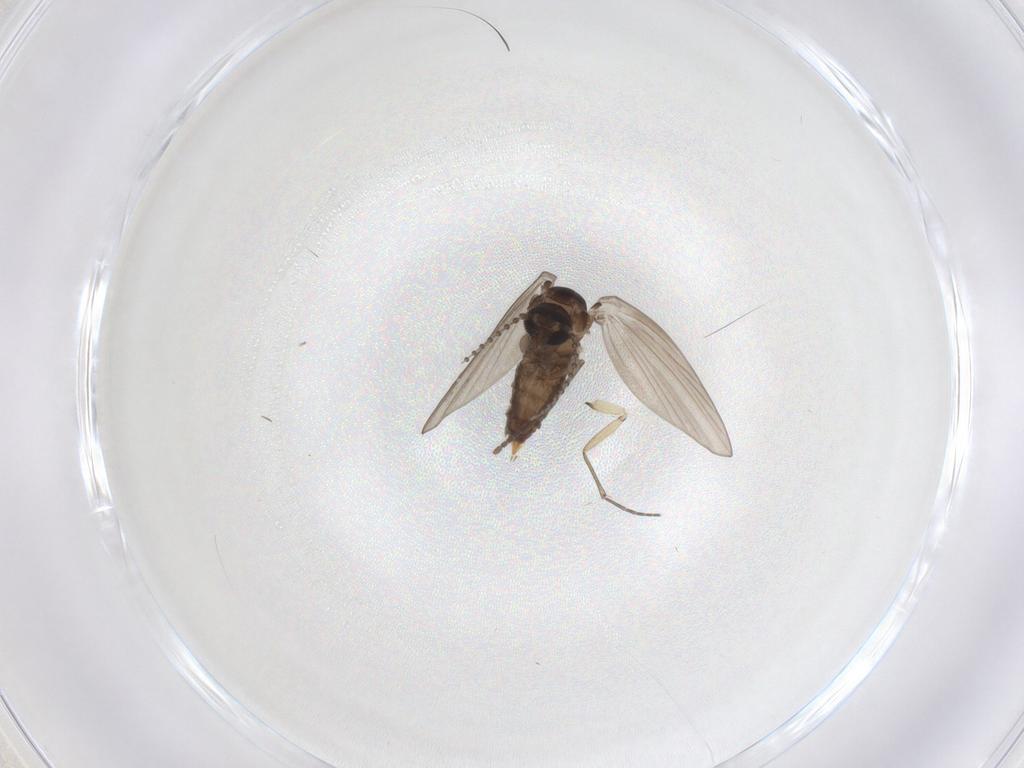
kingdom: Animalia
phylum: Arthropoda
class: Insecta
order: Diptera
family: Psychodidae
